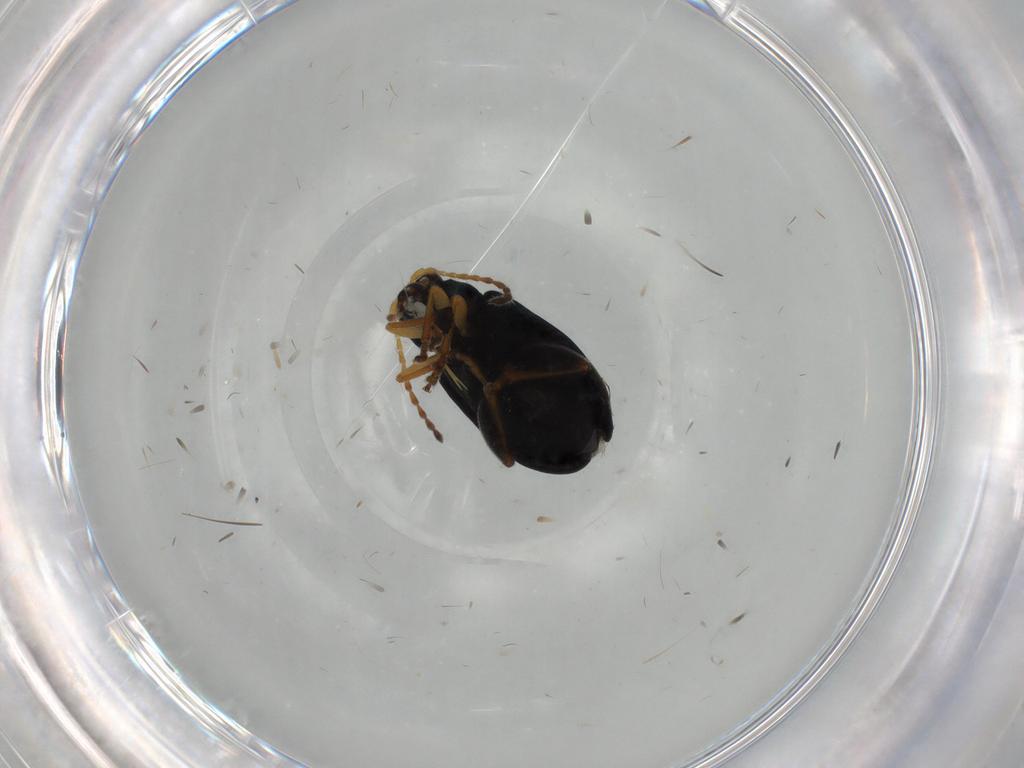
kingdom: Animalia
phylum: Arthropoda
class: Insecta
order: Coleoptera
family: Chrysomelidae
